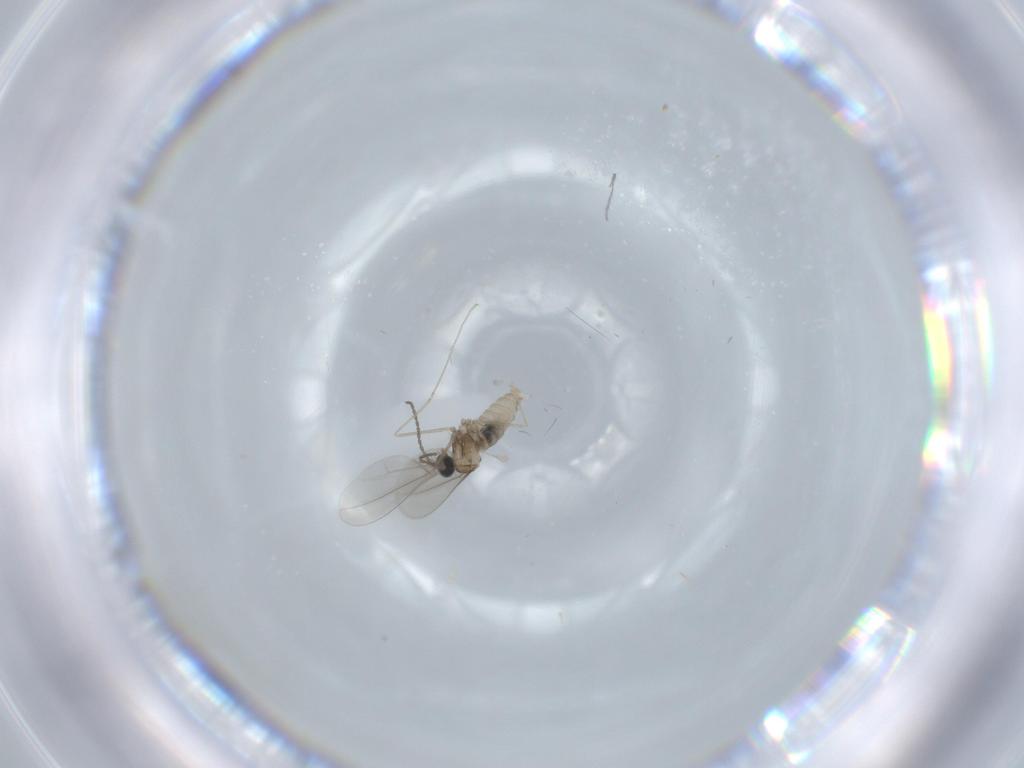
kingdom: Animalia
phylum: Arthropoda
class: Insecta
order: Diptera
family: Cecidomyiidae
